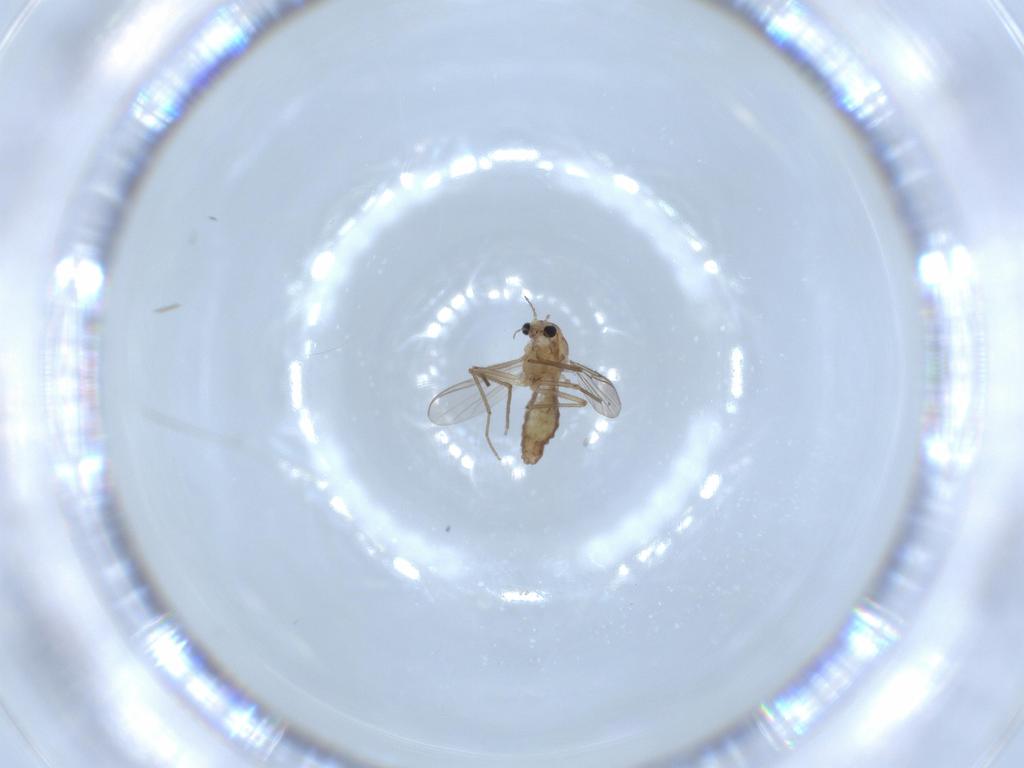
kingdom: Animalia
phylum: Arthropoda
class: Insecta
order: Diptera
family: Chironomidae
